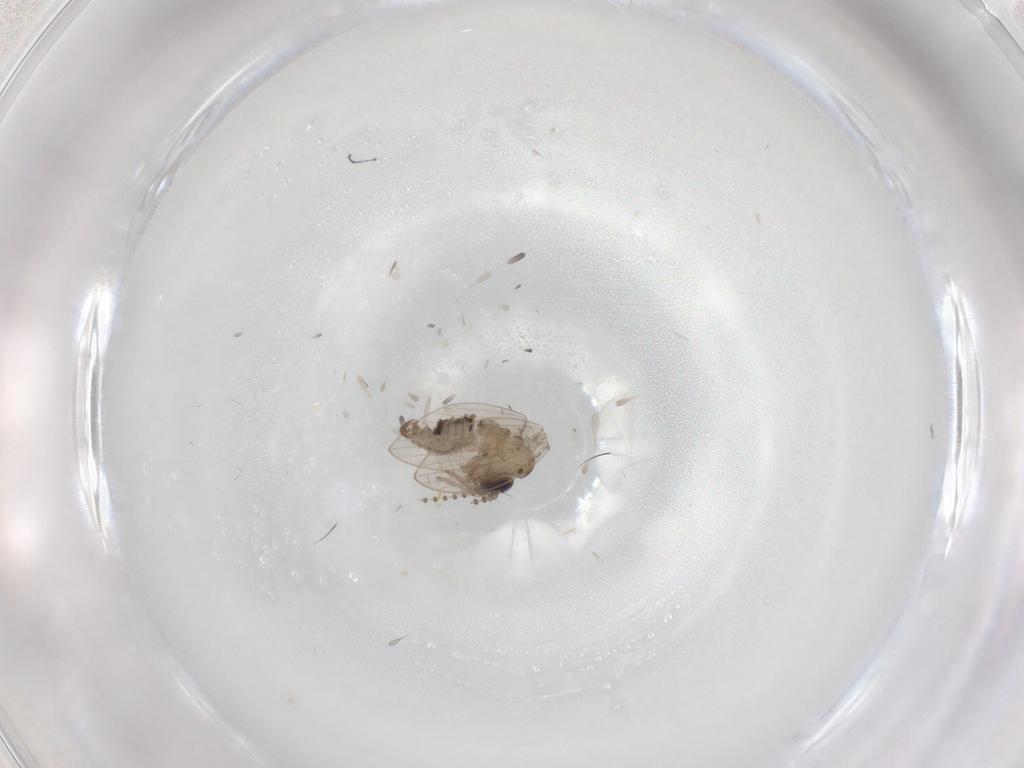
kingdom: Animalia
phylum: Arthropoda
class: Insecta
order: Diptera
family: Psychodidae
